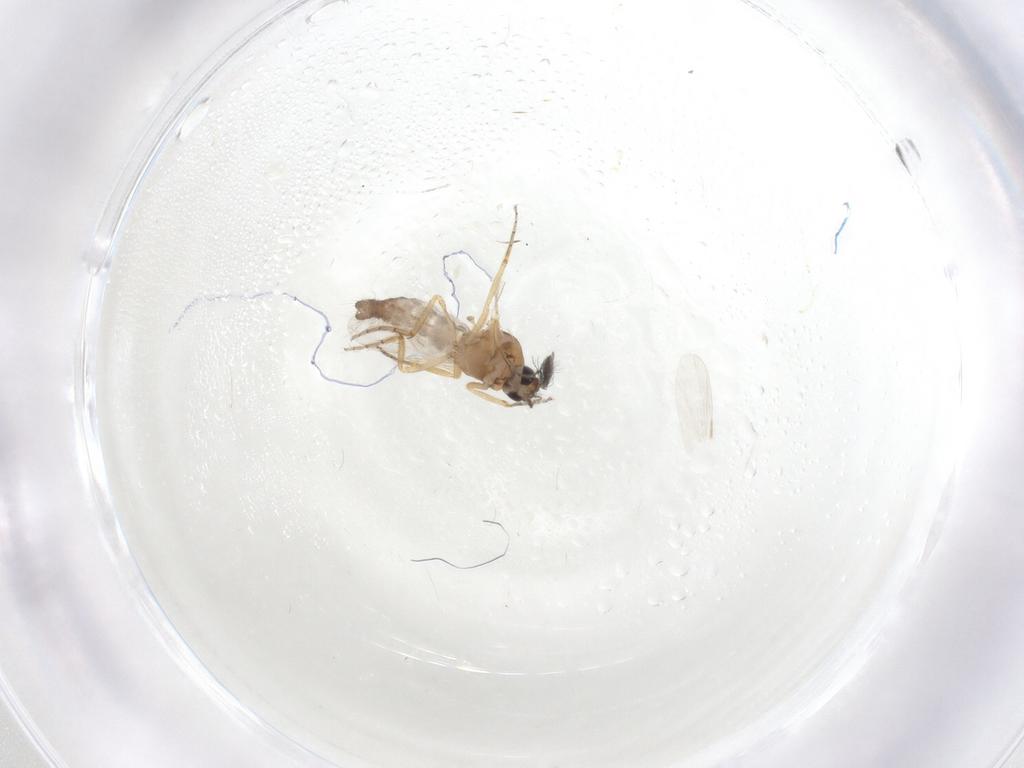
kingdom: Animalia
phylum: Arthropoda
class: Insecta
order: Diptera
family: Ceratopogonidae
